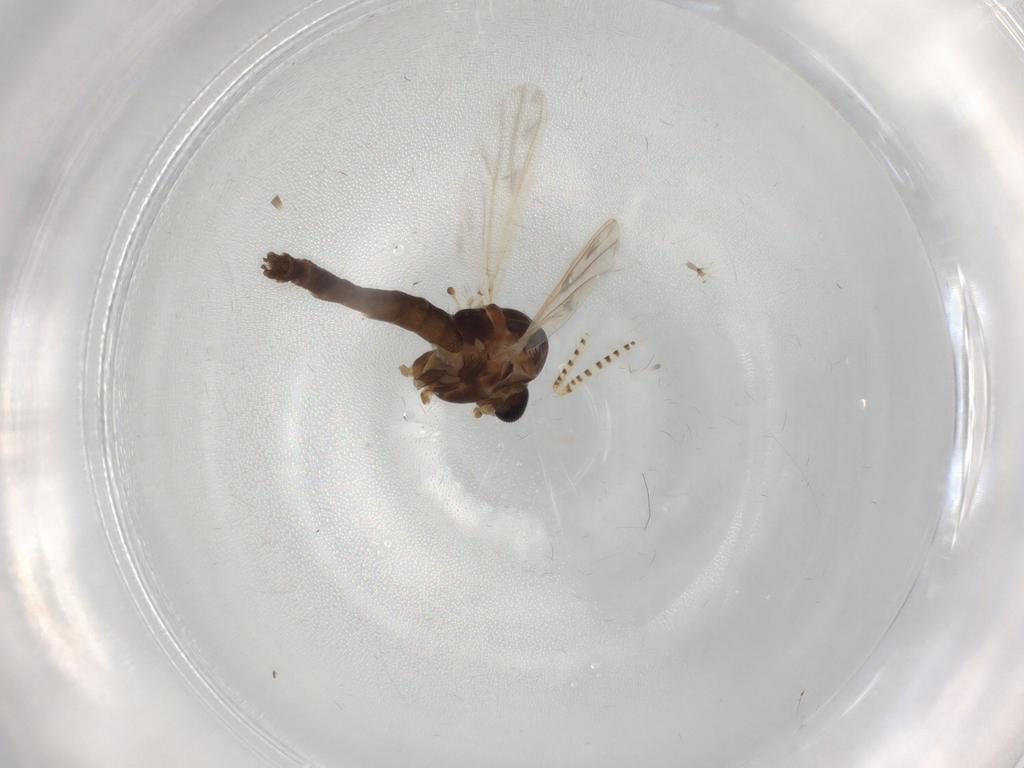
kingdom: Animalia
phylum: Arthropoda
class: Insecta
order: Diptera
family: Chironomidae
